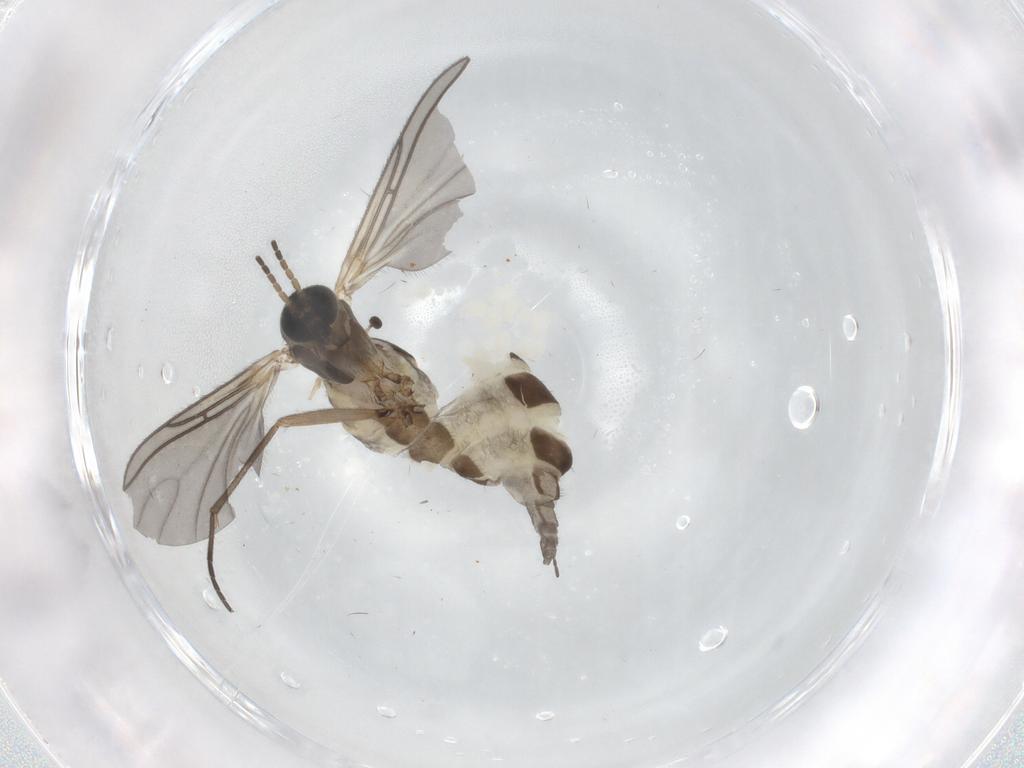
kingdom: Animalia
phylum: Arthropoda
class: Insecta
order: Diptera
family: Sciaridae
